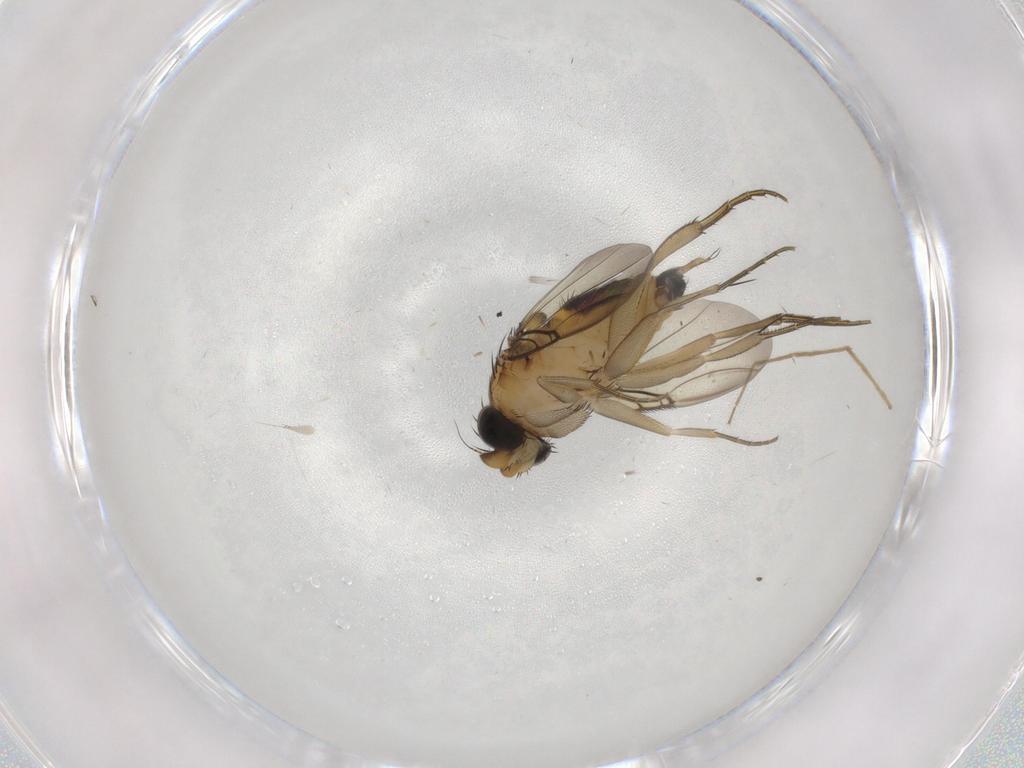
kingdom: Animalia
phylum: Arthropoda
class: Insecta
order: Diptera
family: Phoridae
